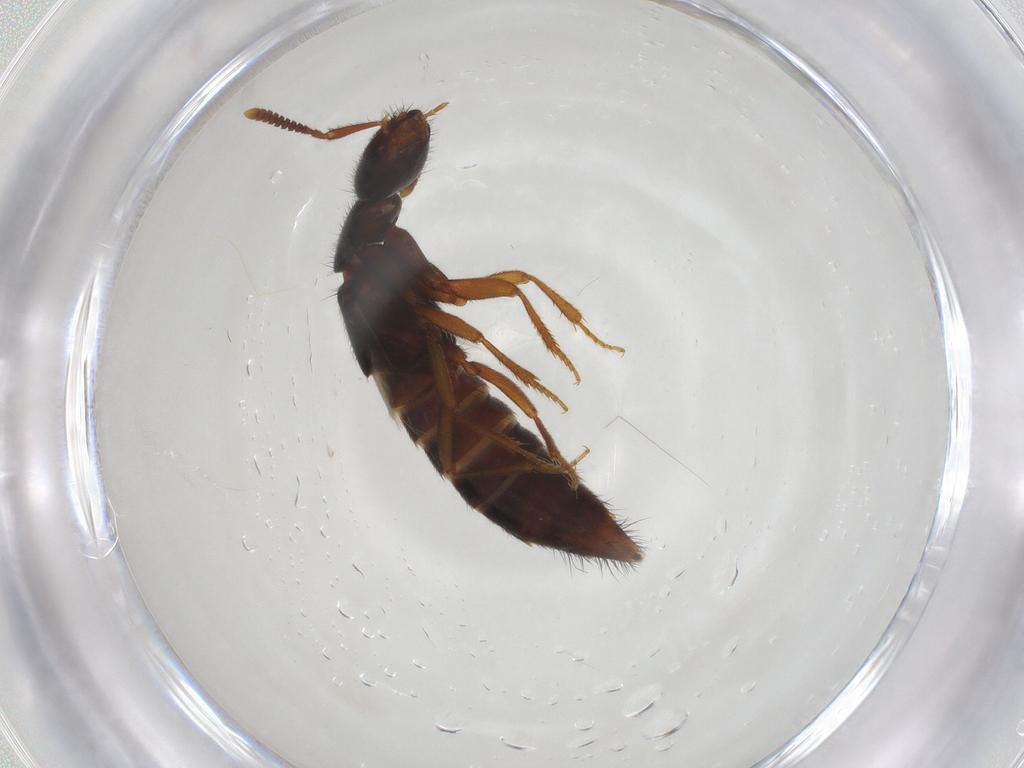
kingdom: Animalia
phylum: Arthropoda
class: Insecta
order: Coleoptera
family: Staphylinidae
